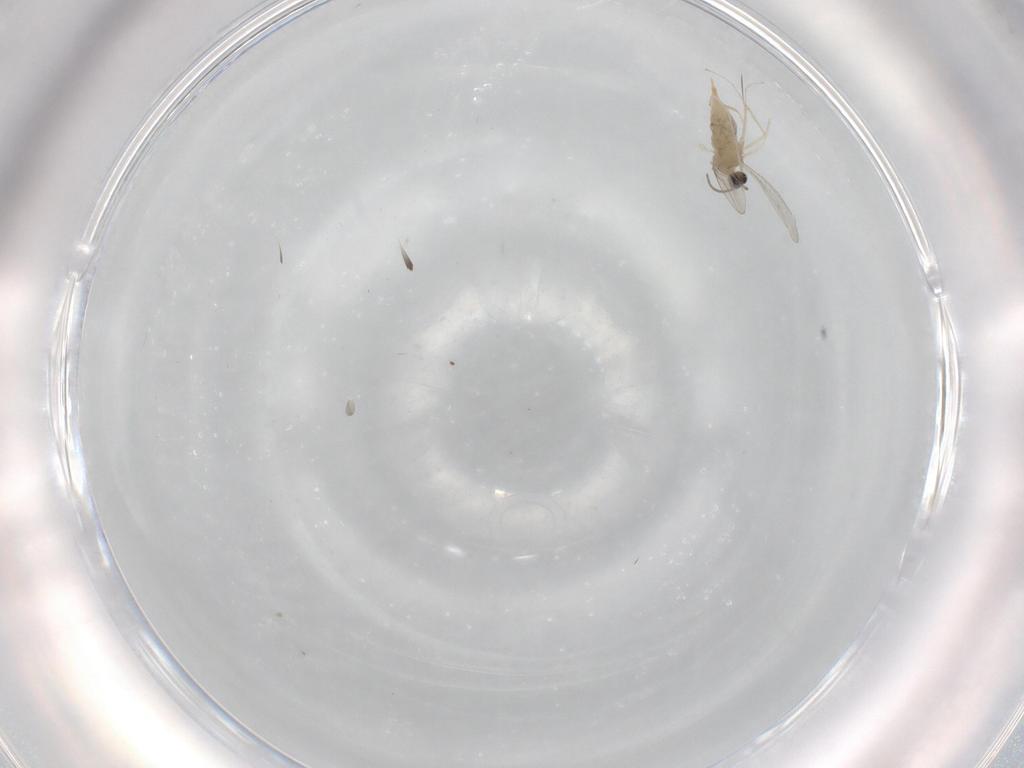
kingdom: Animalia
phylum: Arthropoda
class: Insecta
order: Diptera
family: Cecidomyiidae
